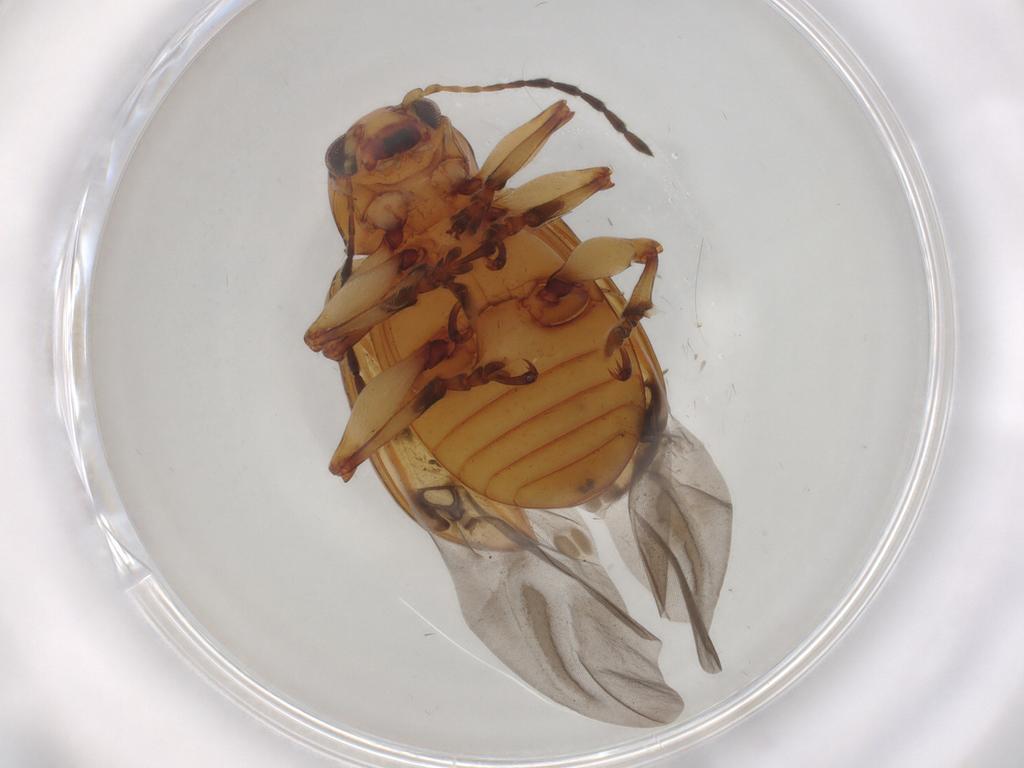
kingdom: Animalia
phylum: Arthropoda
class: Insecta
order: Coleoptera
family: Chrysomelidae
